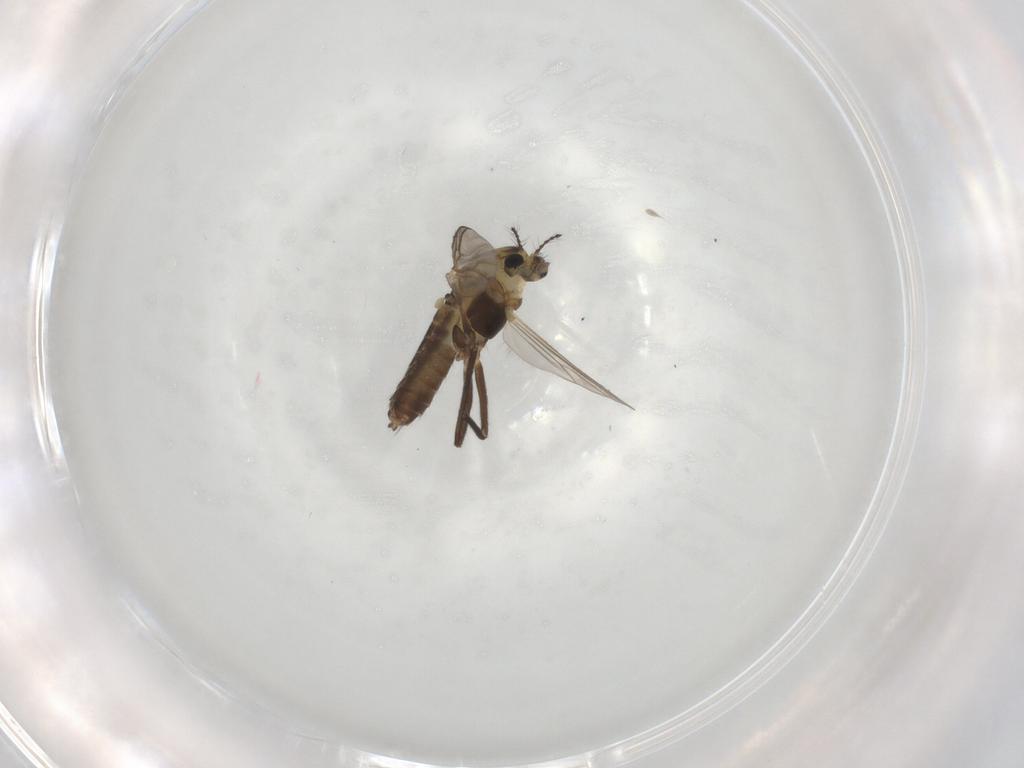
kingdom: Animalia
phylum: Arthropoda
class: Insecta
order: Diptera
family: Chironomidae
